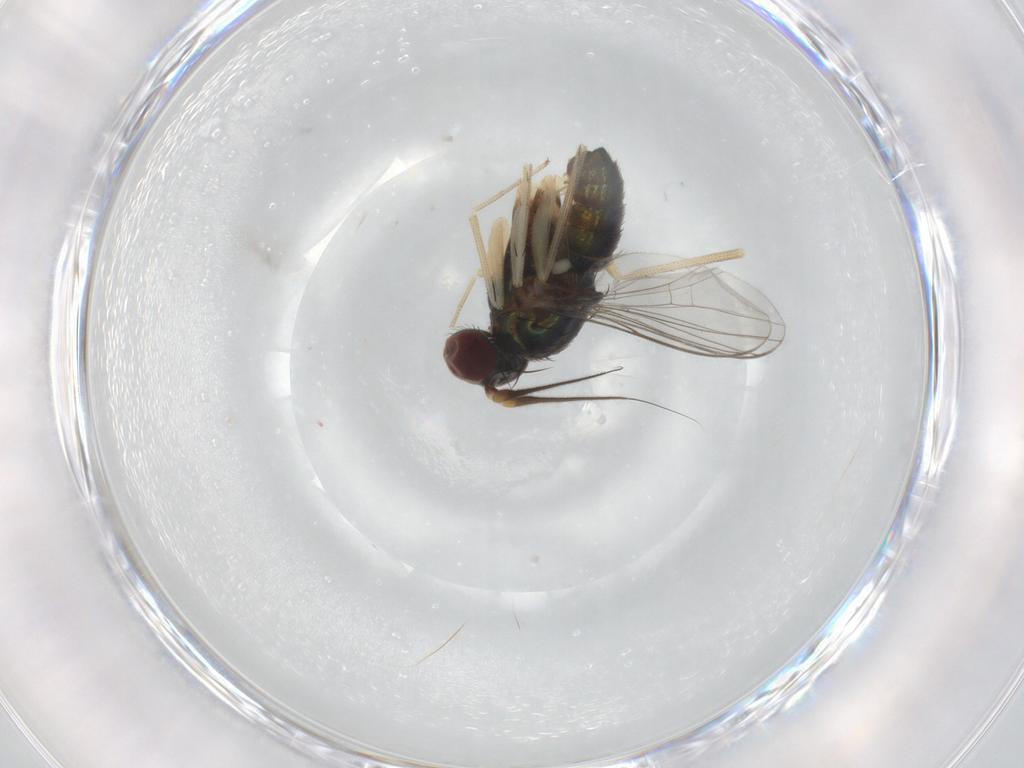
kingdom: Animalia
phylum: Arthropoda
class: Insecta
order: Diptera
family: Dolichopodidae
